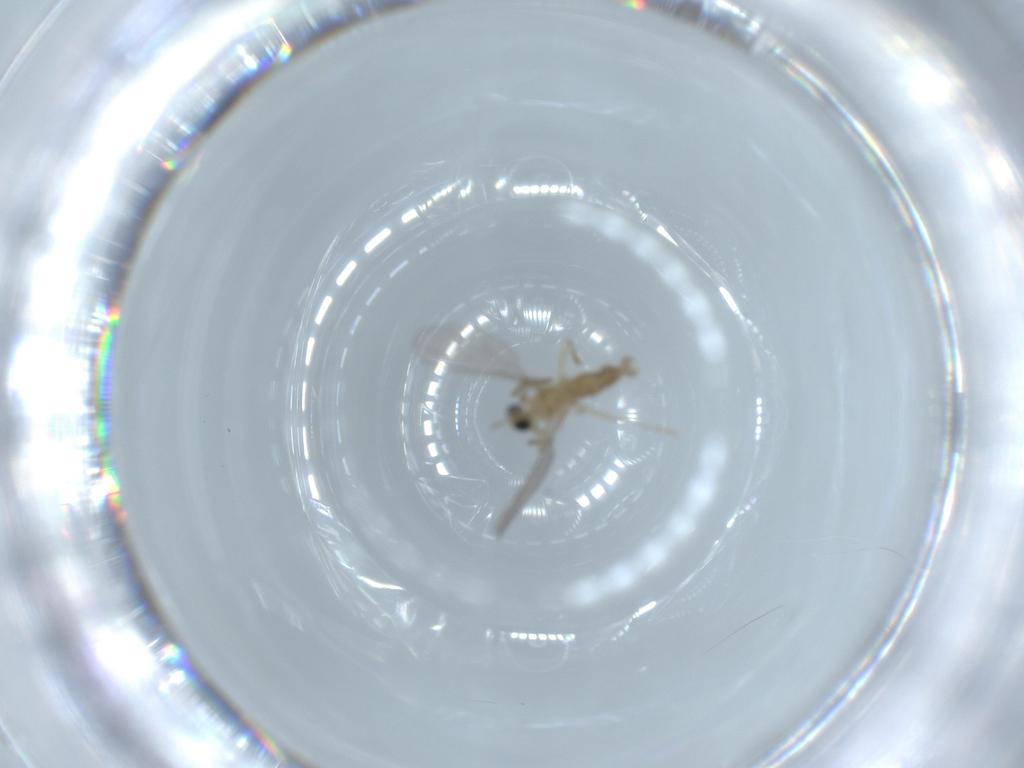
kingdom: Animalia
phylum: Arthropoda
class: Insecta
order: Diptera
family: Cecidomyiidae
